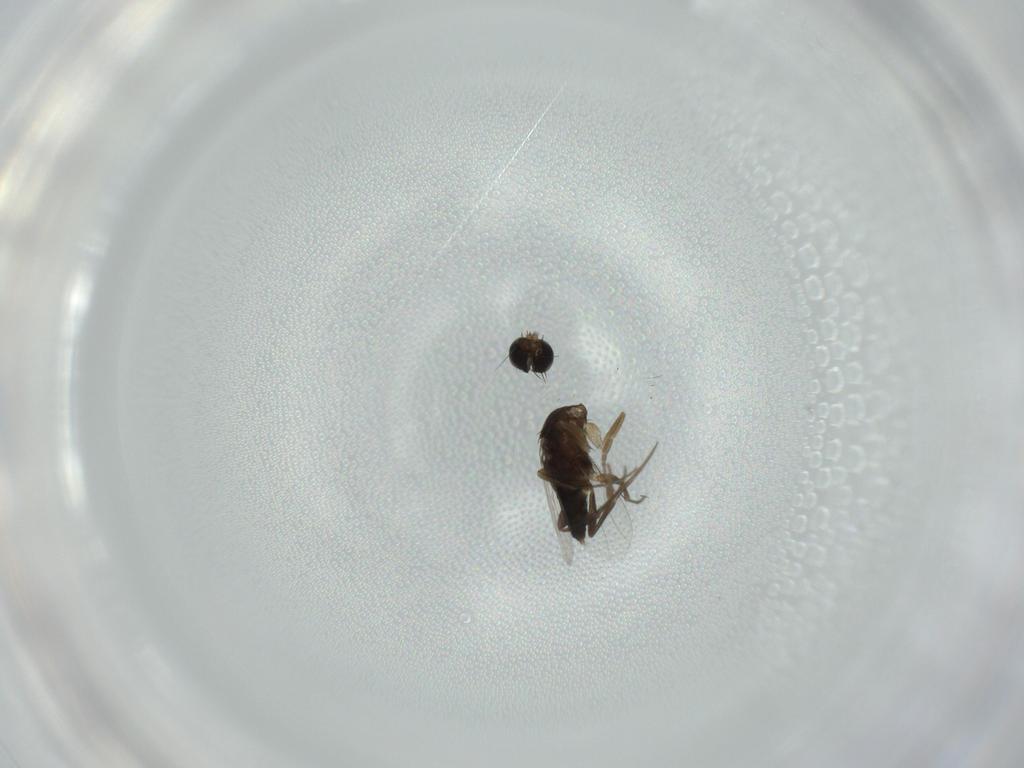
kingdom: Animalia
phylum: Arthropoda
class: Insecta
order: Diptera
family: Phoridae
